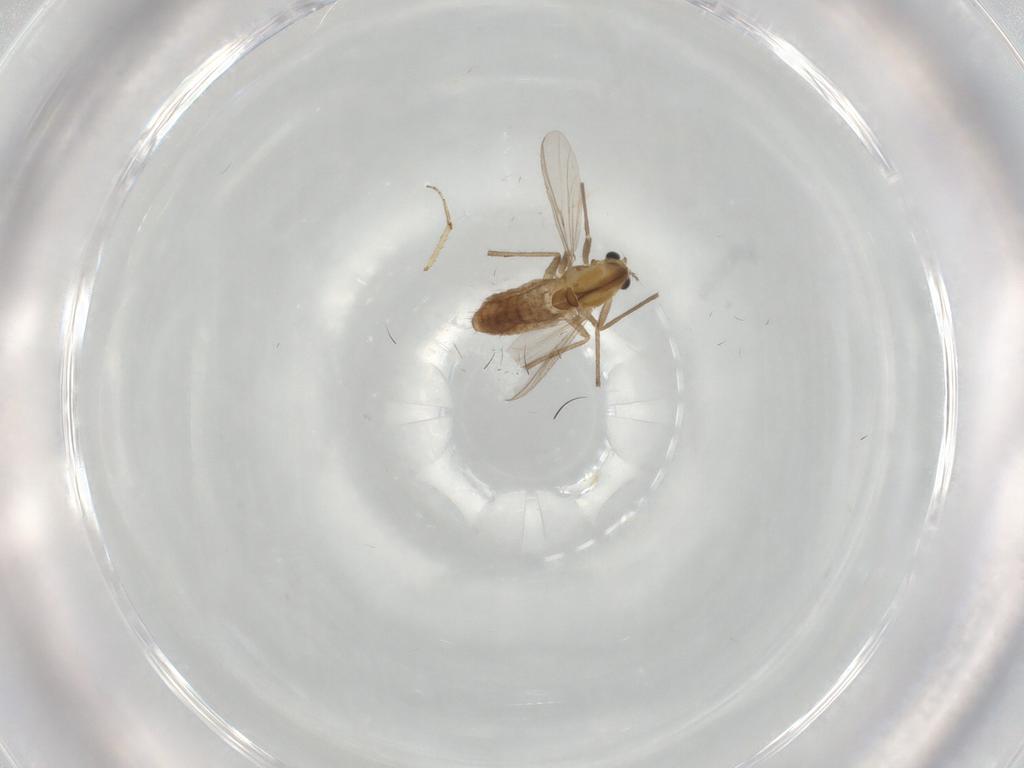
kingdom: Animalia
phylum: Arthropoda
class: Insecta
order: Diptera
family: Chironomidae
